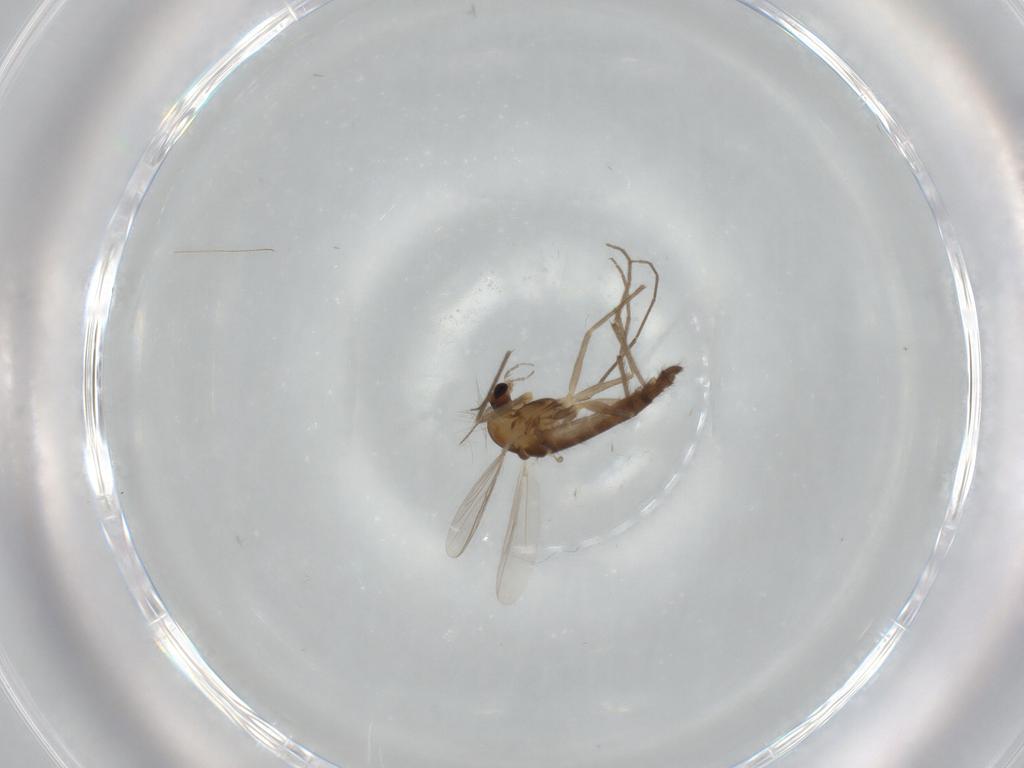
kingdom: Animalia
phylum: Arthropoda
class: Insecta
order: Diptera
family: Chironomidae
